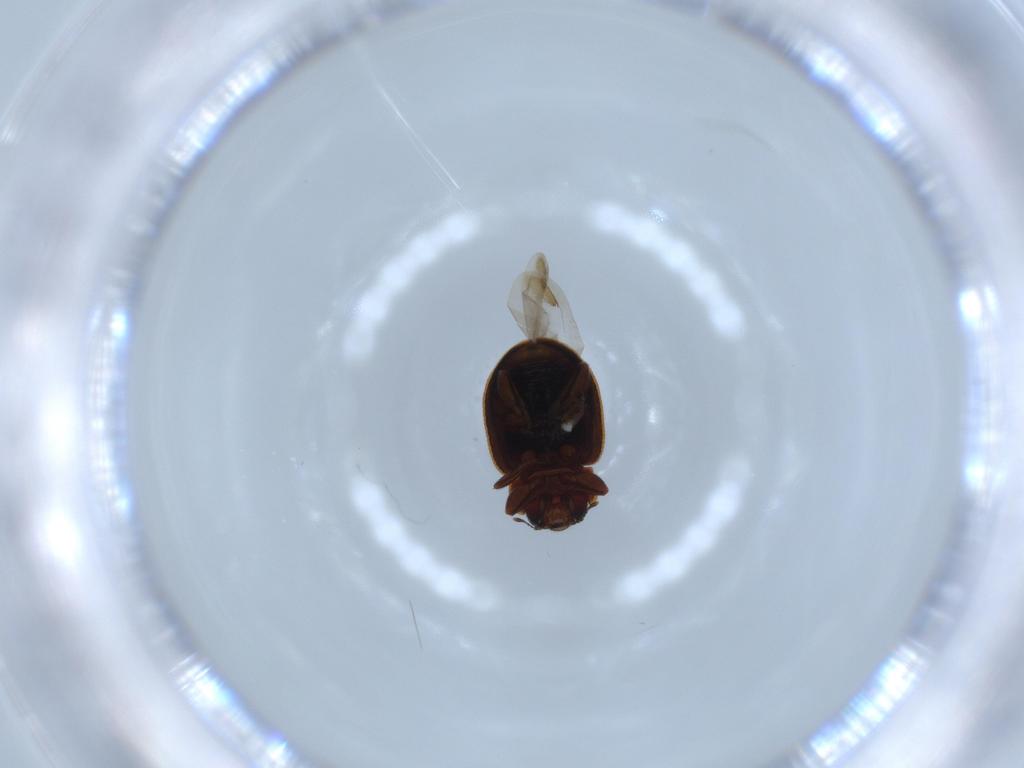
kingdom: Animalia
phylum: Arthropoda
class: Insecta
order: Coleoptera
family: Coccinellidae
